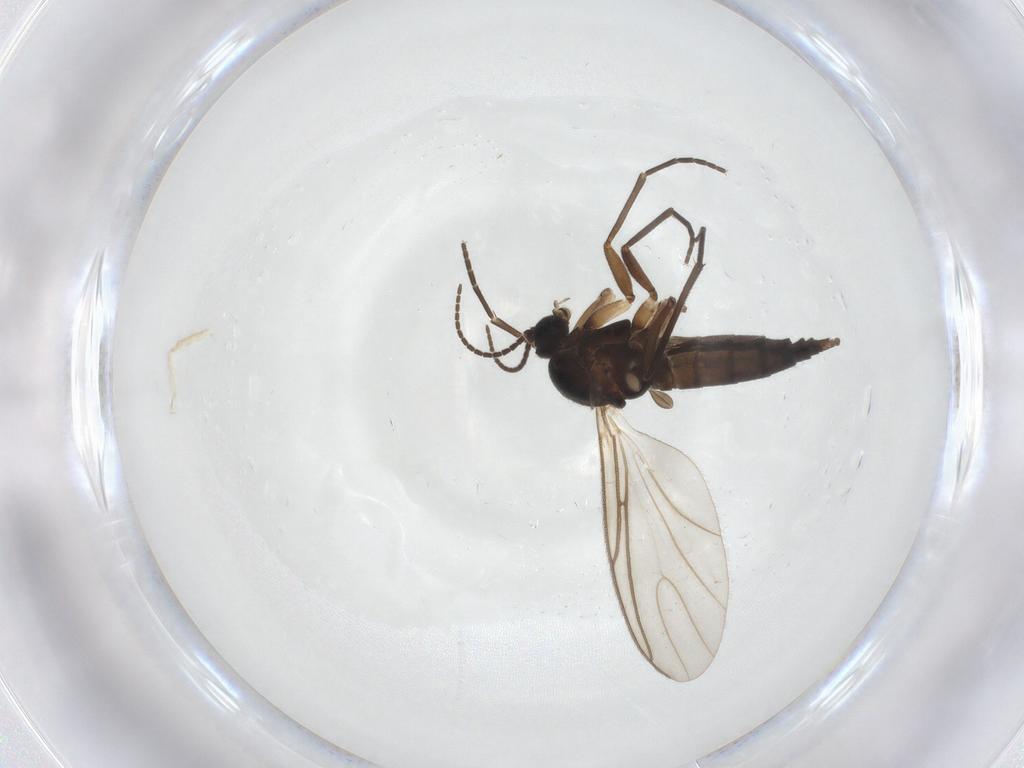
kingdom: Animalia
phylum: Arthropoda
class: Insecta
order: Diptera
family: Sciaridae
